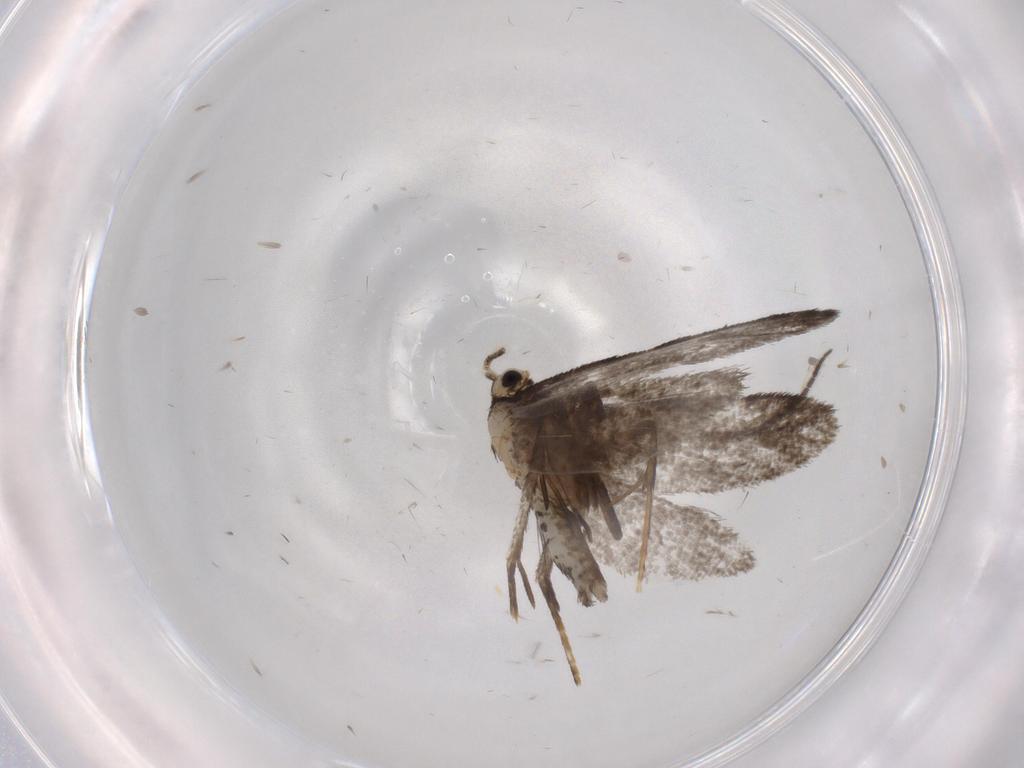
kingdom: Animalia
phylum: Arthropoda
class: Insecta
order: Lepidoptera
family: Psychidae
